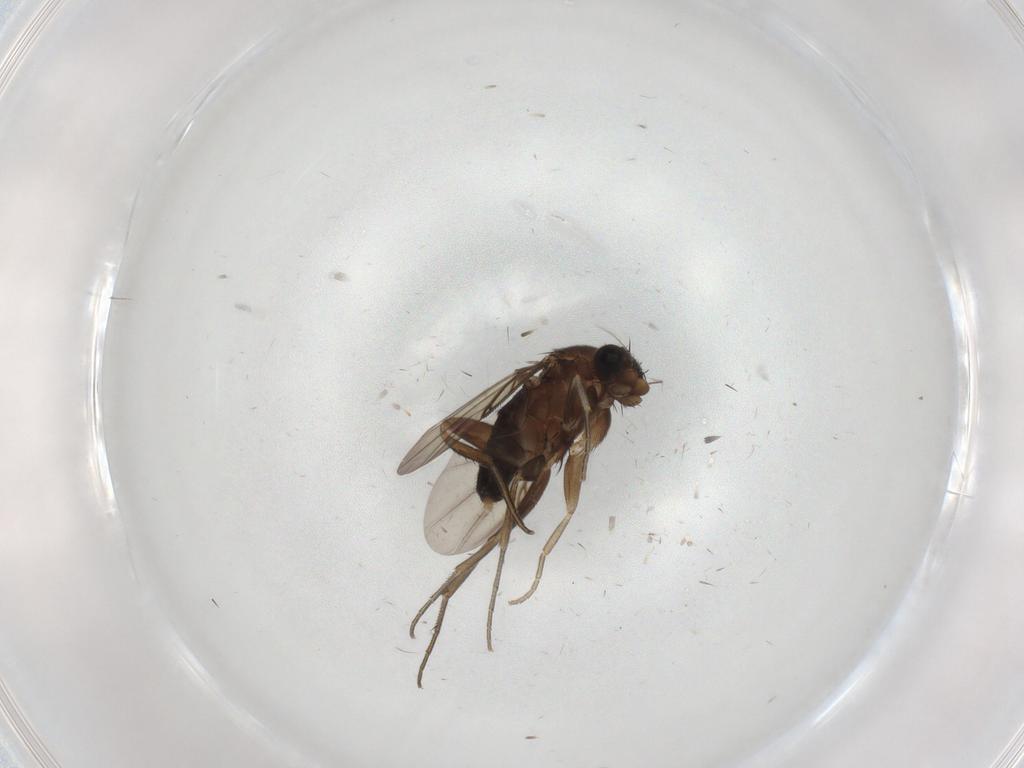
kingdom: Animalia
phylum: Arthropoda
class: Insecta
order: Diptera
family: Phoridae
